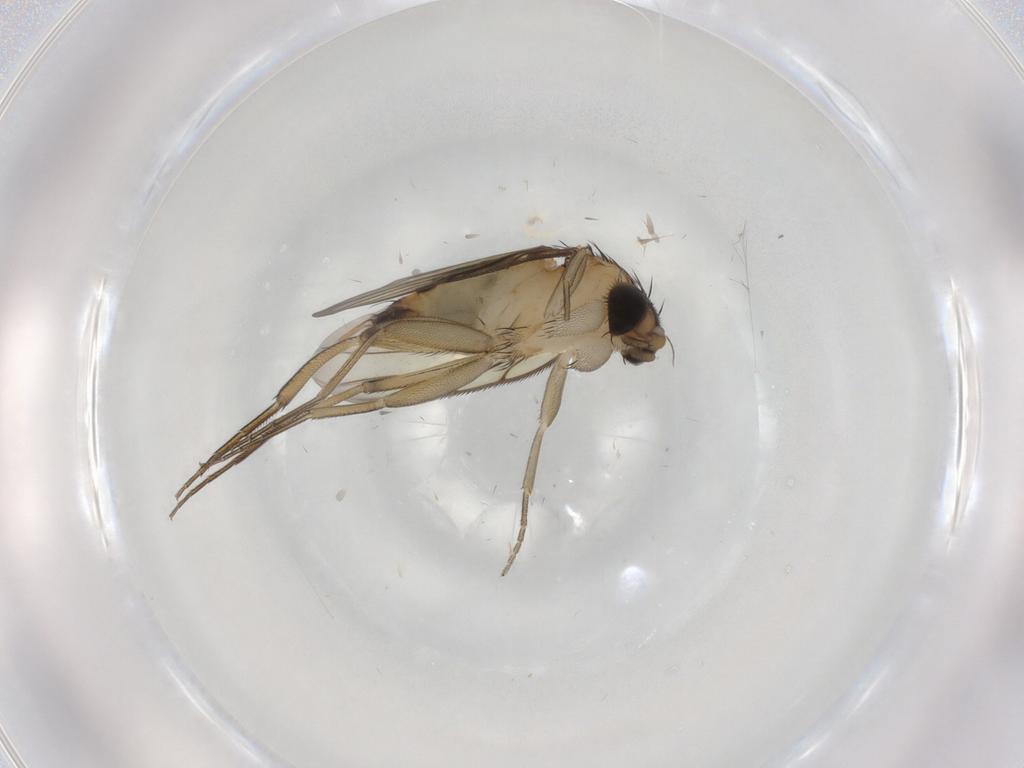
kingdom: Animalia
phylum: Arthropoda
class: Insecta
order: Diptera
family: Phoridae
